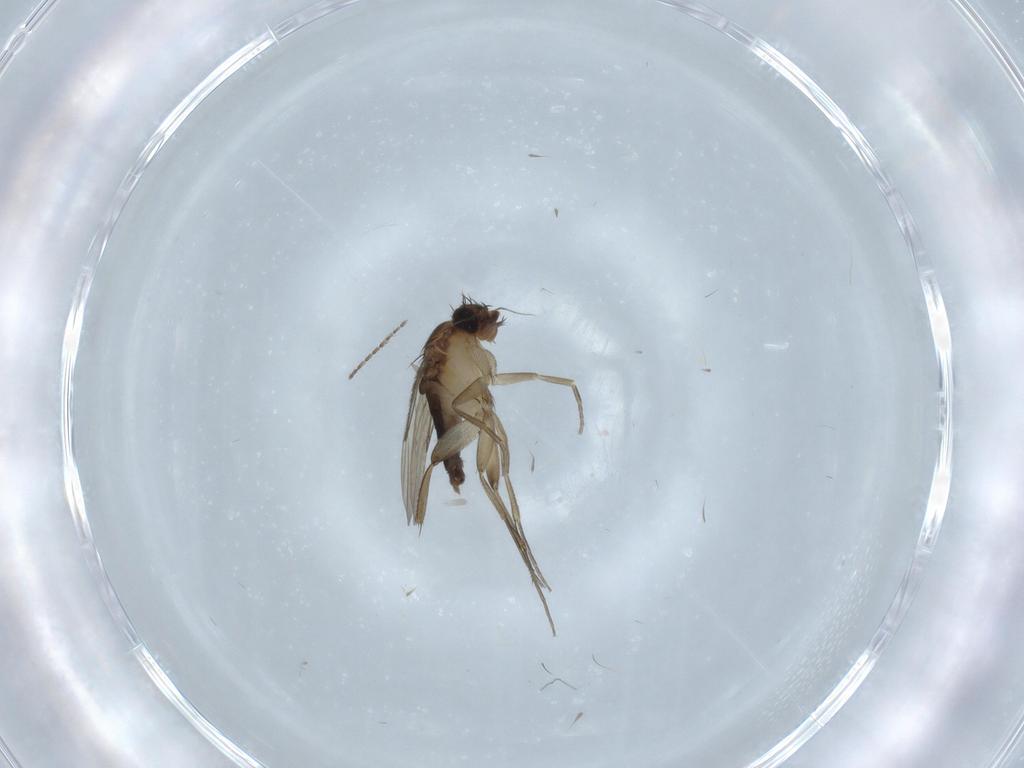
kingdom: Animalia
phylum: Arthropoda
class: Insecta
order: Diptera
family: Phoridae
